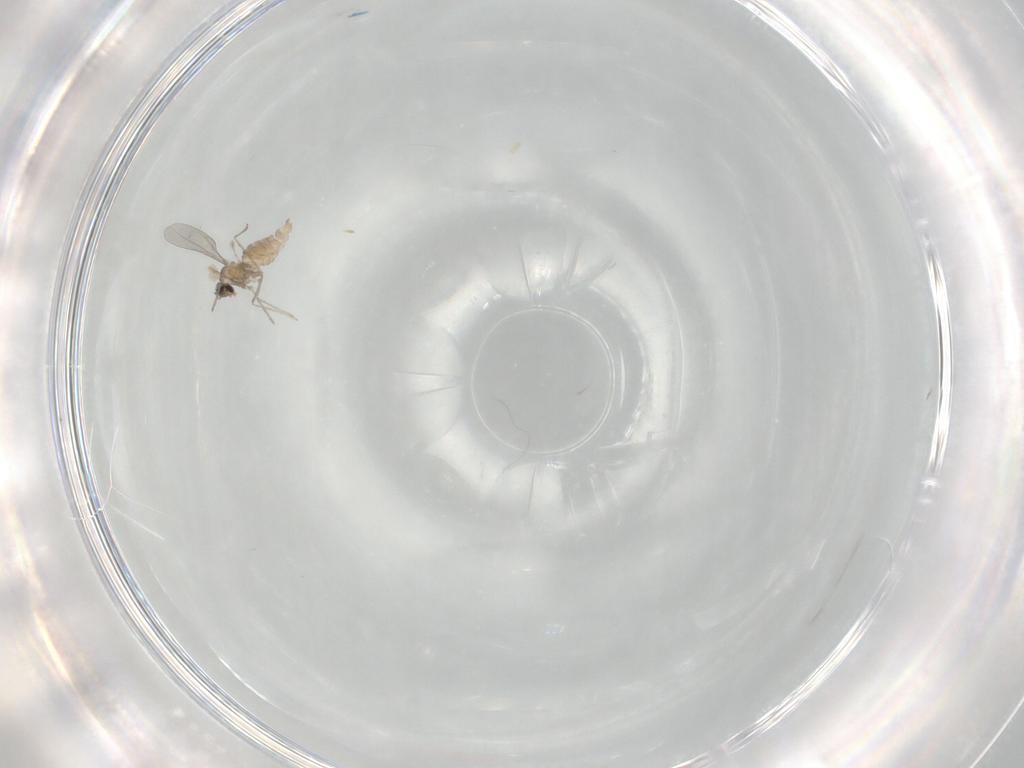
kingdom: Animalia
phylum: Arthropoda
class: Insecta
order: Diptera
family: Cecidomyiidae
